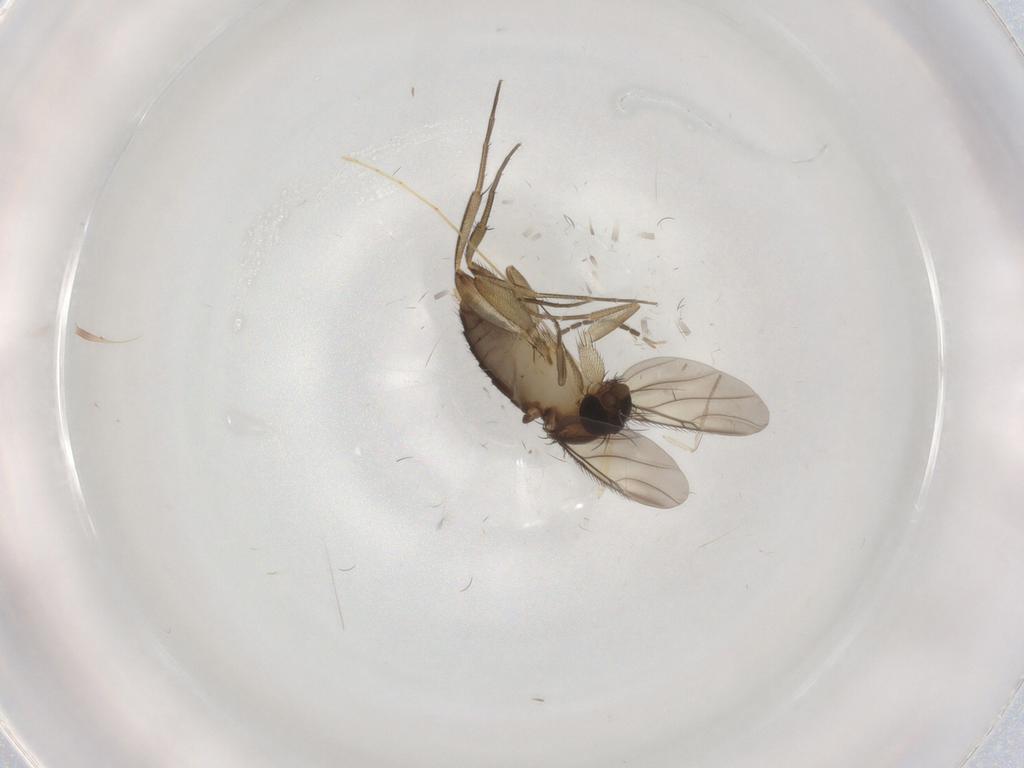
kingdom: Animalia
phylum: Arthropoda
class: Insecta
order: Diptera
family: Phoridae
